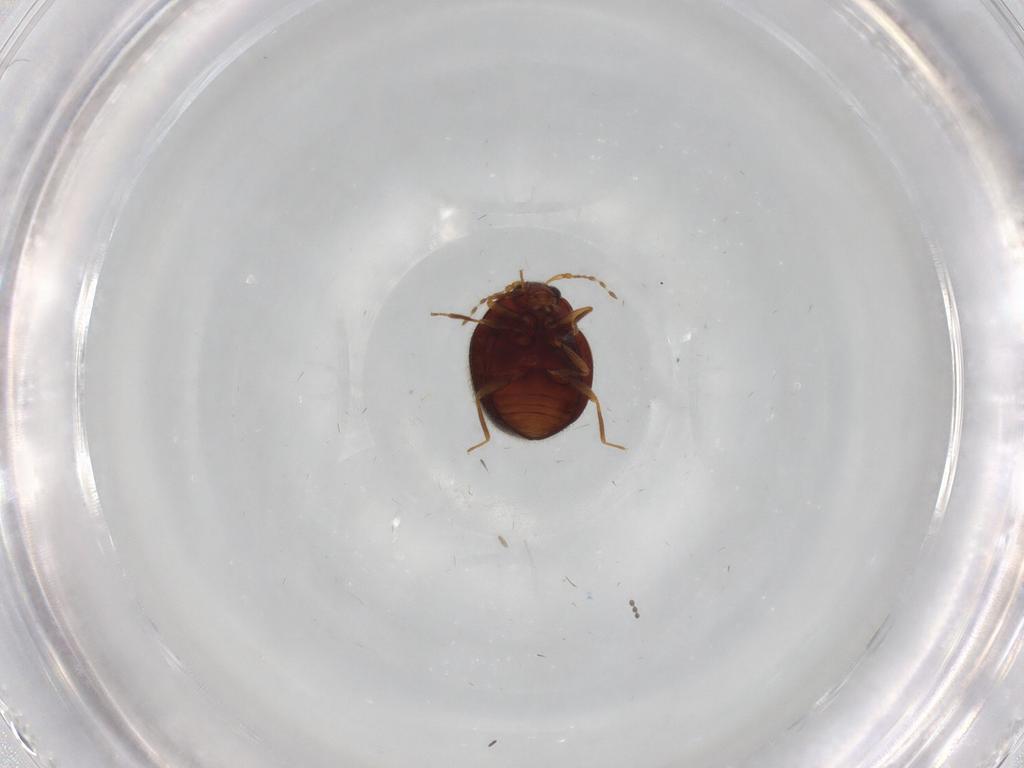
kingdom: Animalia
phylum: Arthropoda
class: Insecta
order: Coleoptera
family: Anamorphidae
